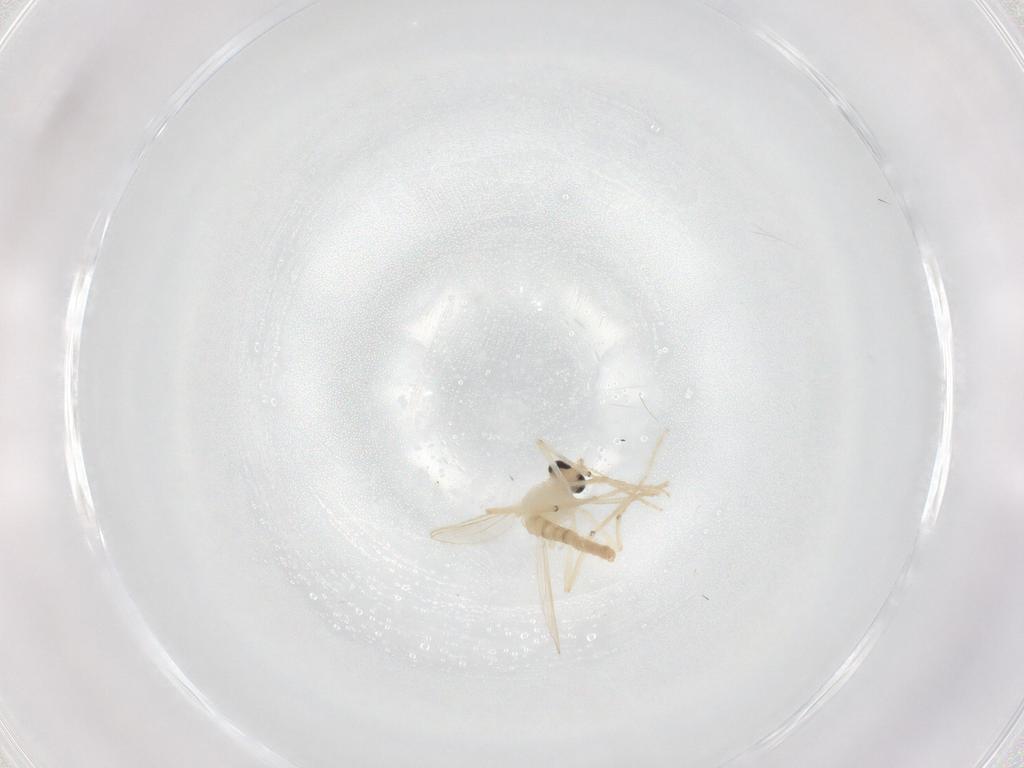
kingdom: Animalia
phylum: Arthropoda
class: Insecta
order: Diptera
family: Chironomidae
